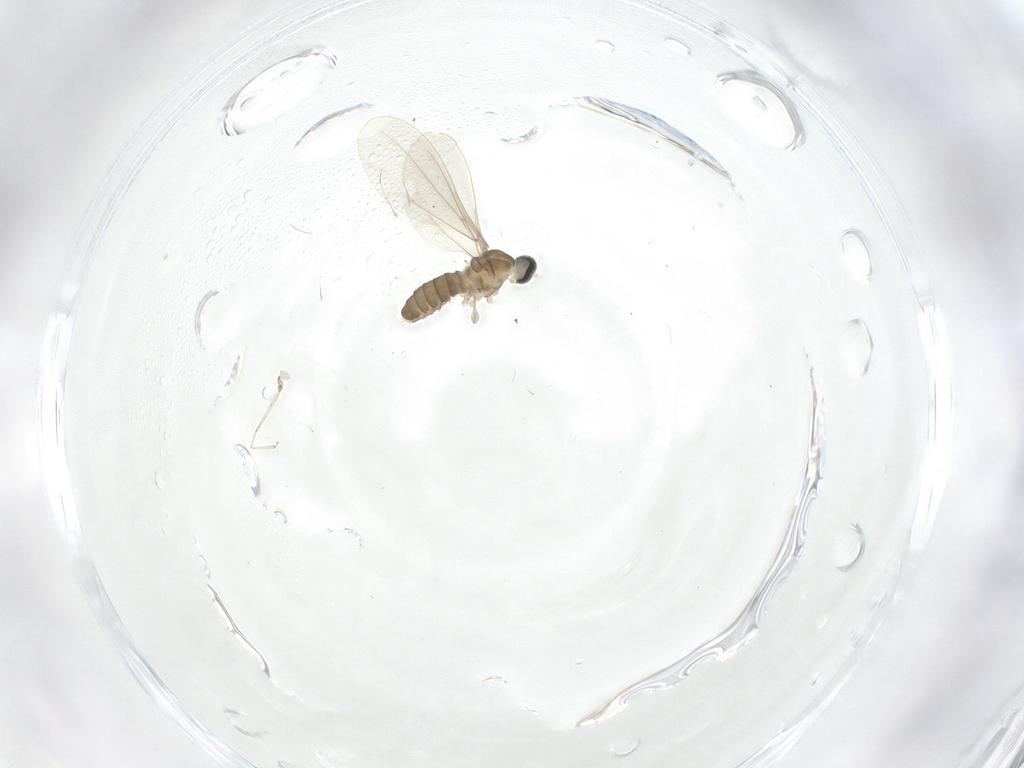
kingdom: Animalia
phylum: Arthropoda
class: Insecta
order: Diptera
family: Cecidomyiidae
